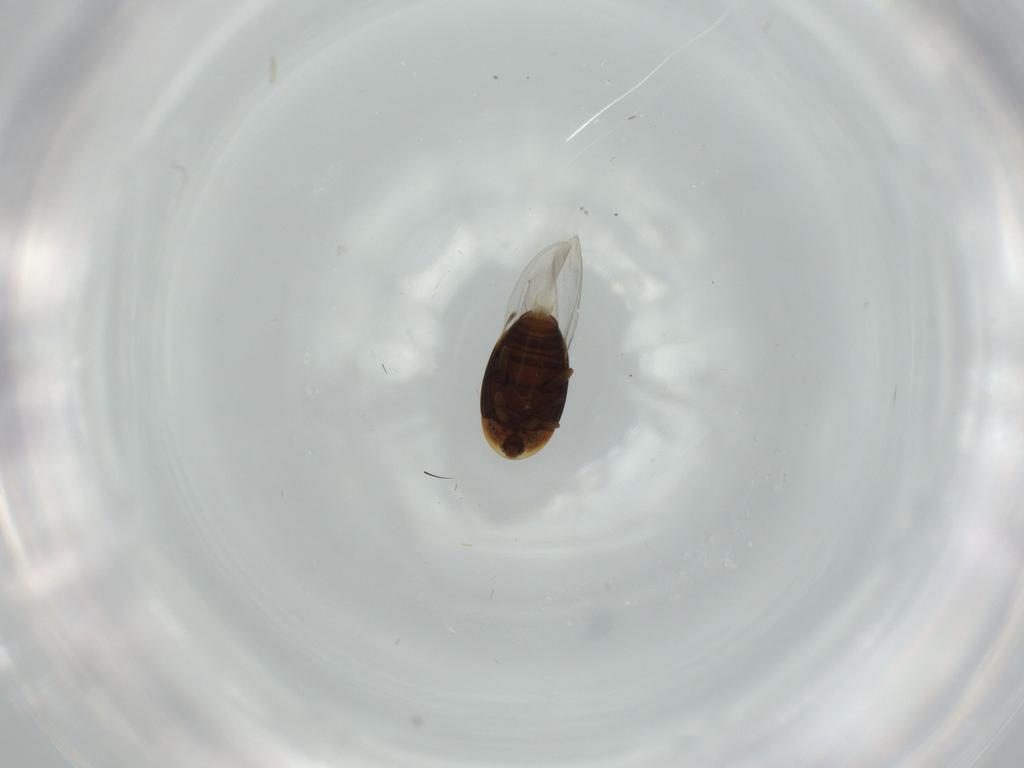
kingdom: Animalia
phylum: Arthropoda
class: Insecta
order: Coleoptera
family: Corylophidae
